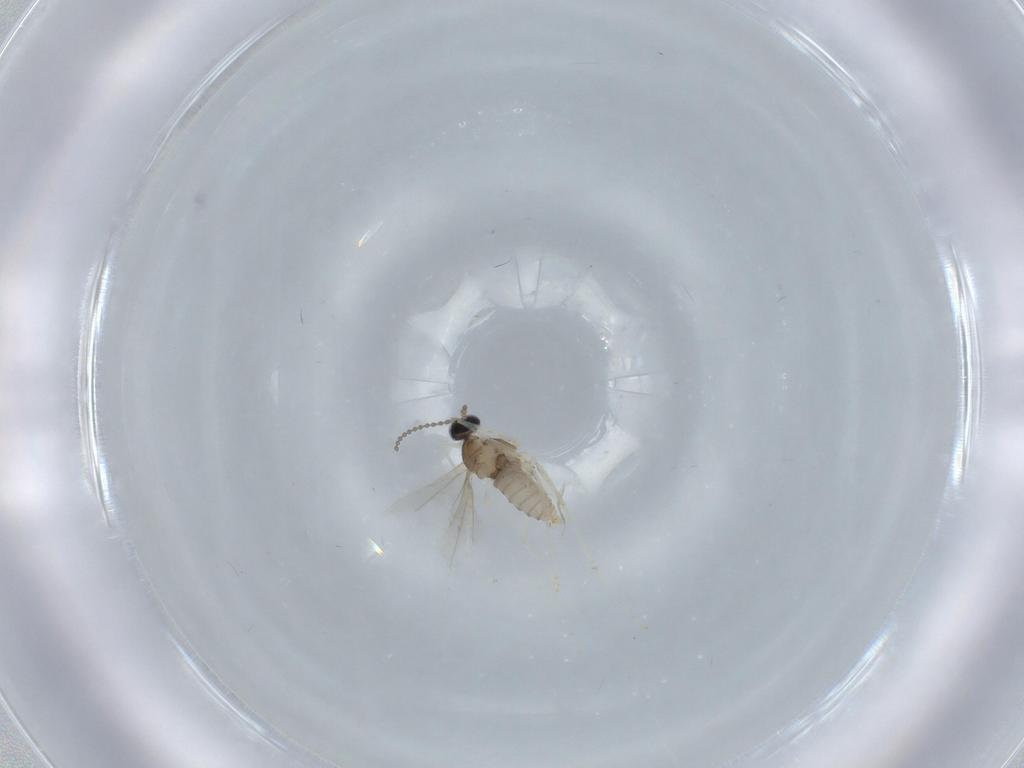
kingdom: Animalia
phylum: Arthropoda
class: Insecta
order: Diptera
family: Cecidomyiidae
